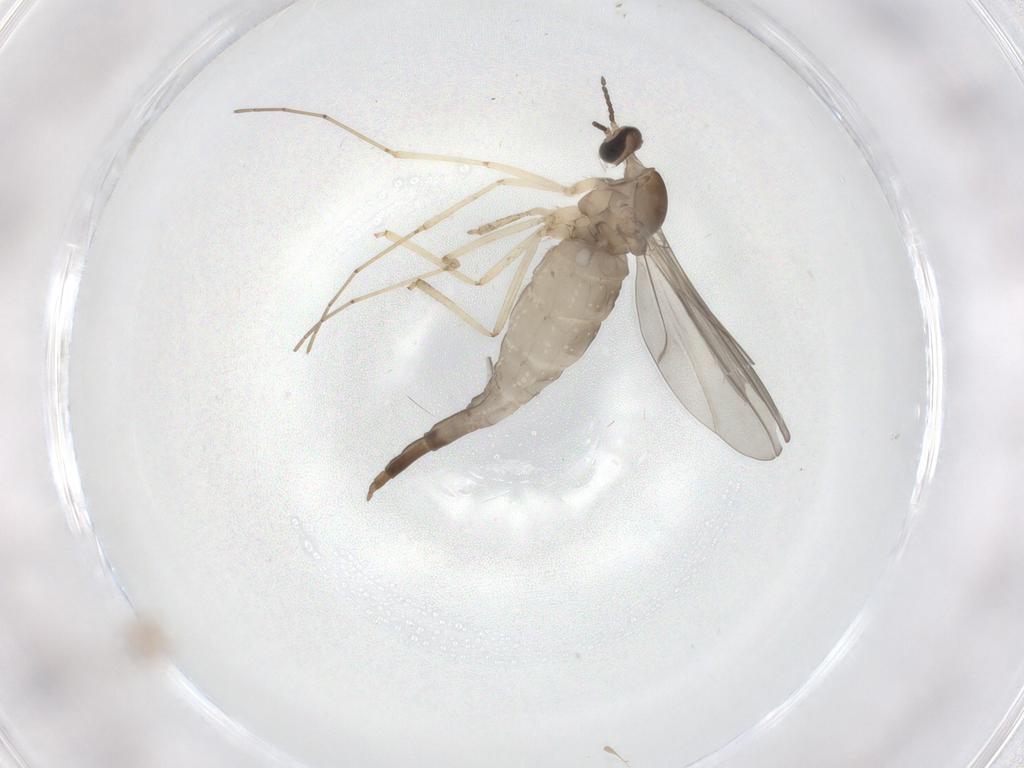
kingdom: Animalia
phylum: Arthropoda
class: Insecta
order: Diptera
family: Cecidomyiidae
